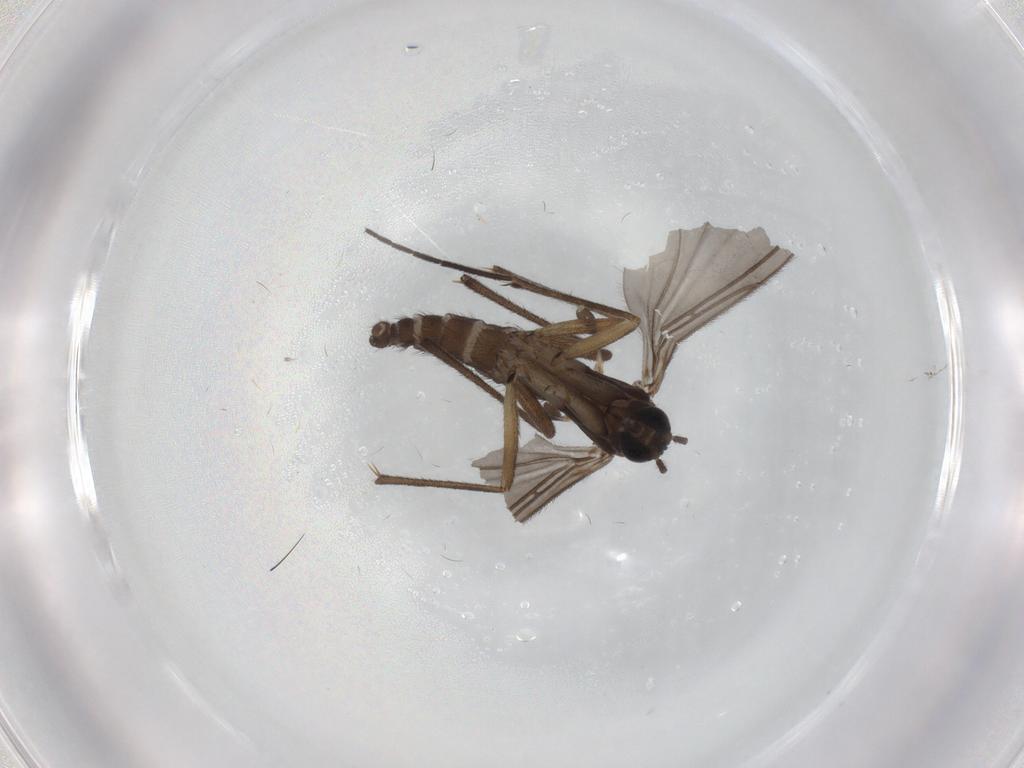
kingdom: Animalia
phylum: Arthropoda
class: Insecta
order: Diptera
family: Sciaridae
